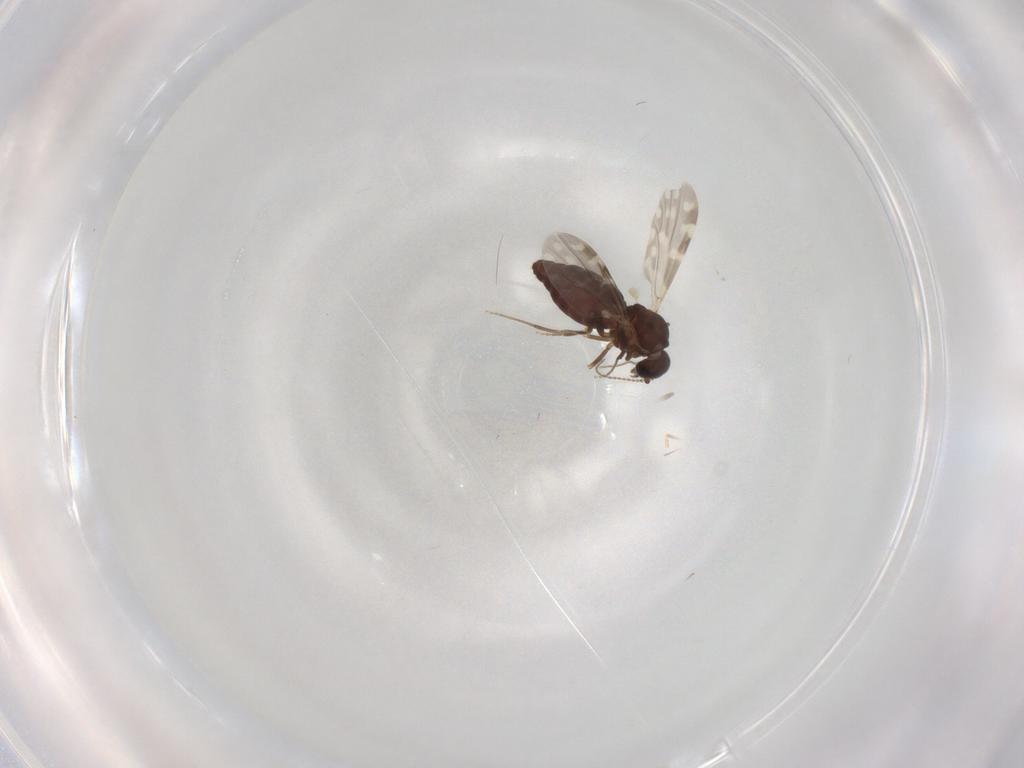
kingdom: Animalia
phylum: Arthropoda
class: Insecta
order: Diptera
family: Ceratopogonidae
